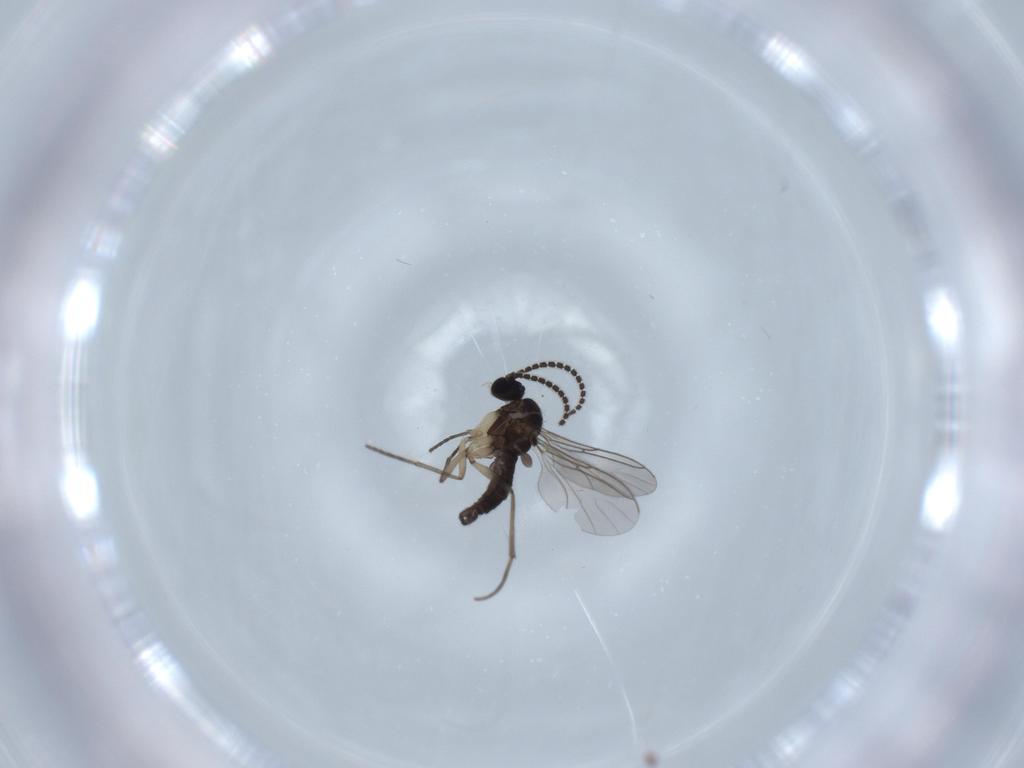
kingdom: Animalia
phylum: Arthropoda
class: Insecta
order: Diptera
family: Sciaridae
